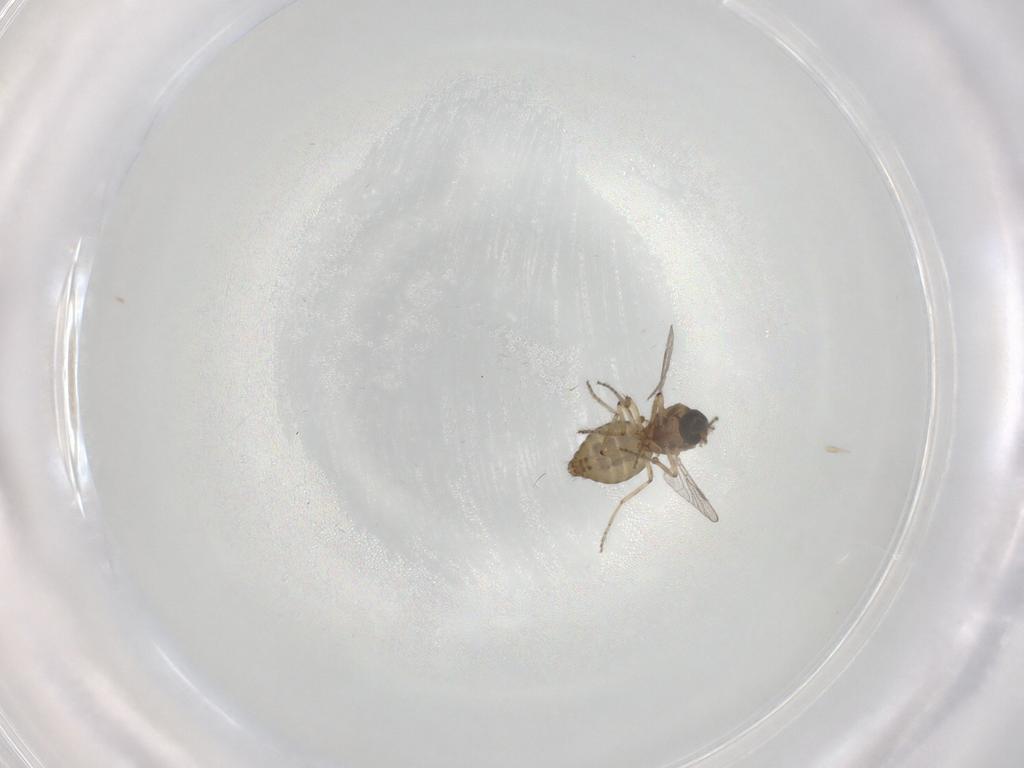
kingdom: Animalia
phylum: Arthropoda
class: Insecta
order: Diptera
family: Ceratopogonidae
